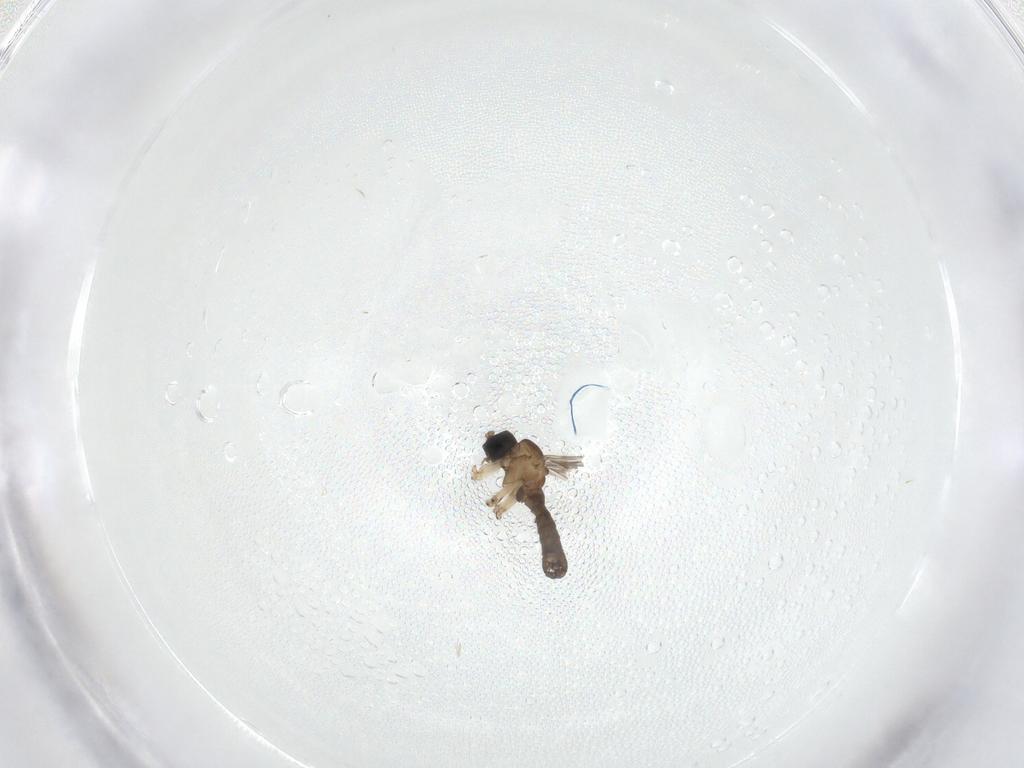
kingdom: Animalia
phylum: Arthropoda
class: Insecta
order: Diptera
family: Sciaridae
